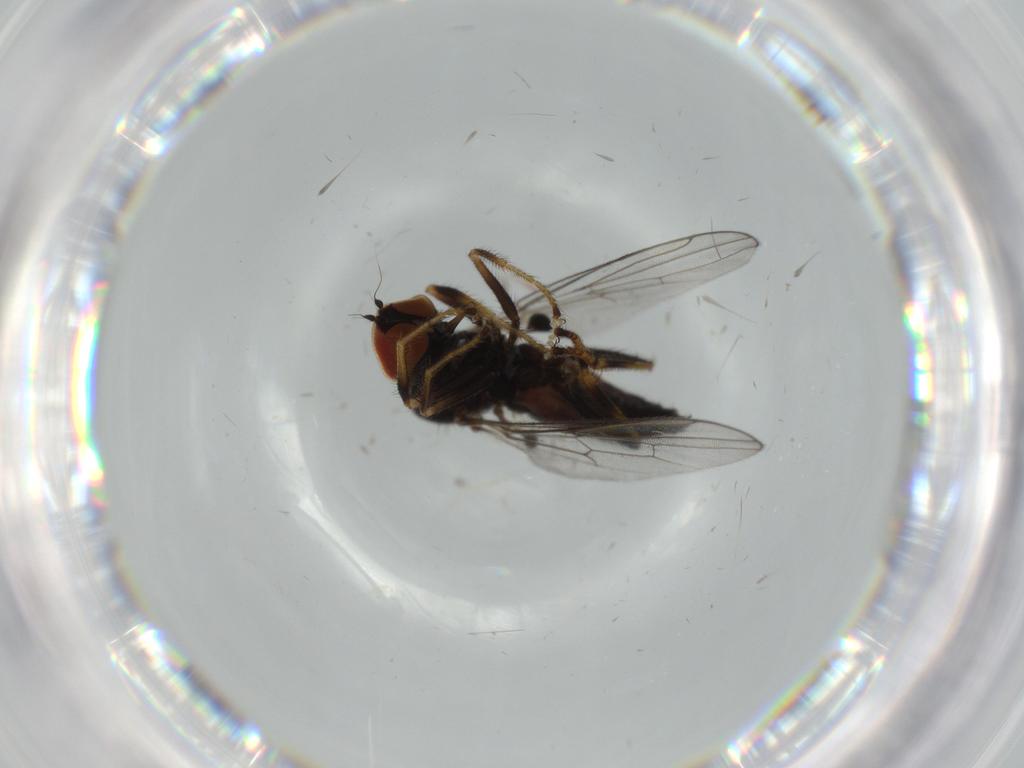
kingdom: Animalia
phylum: Arthropoda
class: Insecta
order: Diptera
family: Hybotidae
